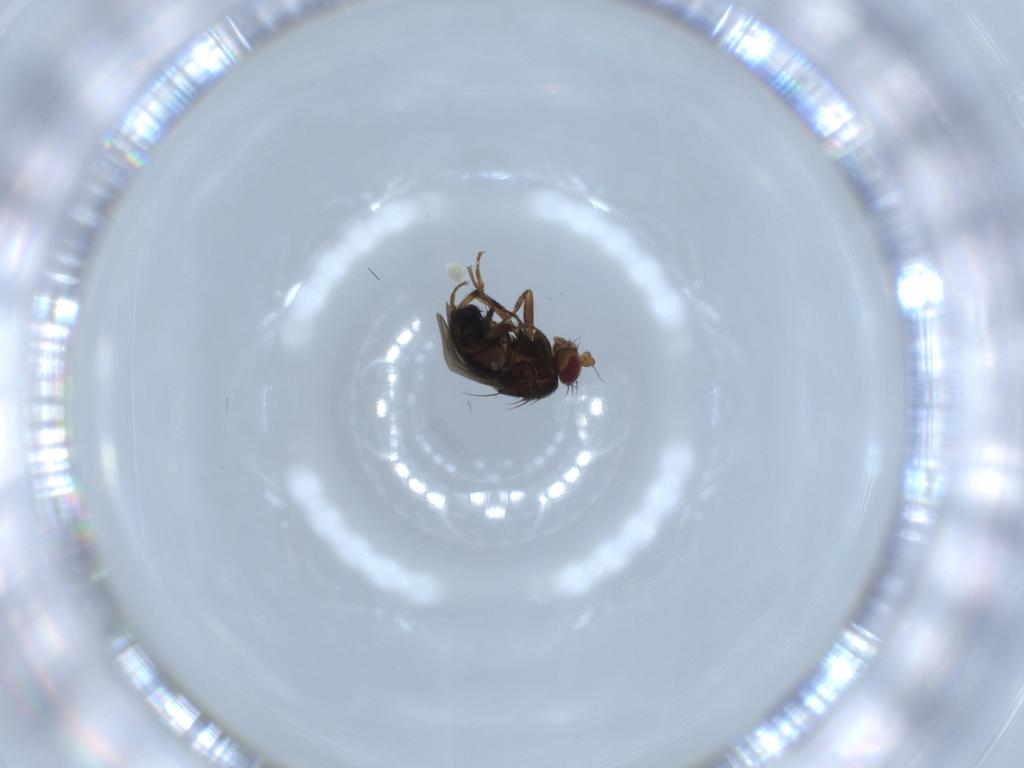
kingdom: Animalia
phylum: Arthropoda
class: Insecta
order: Diptera
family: Sphaeroceridae
